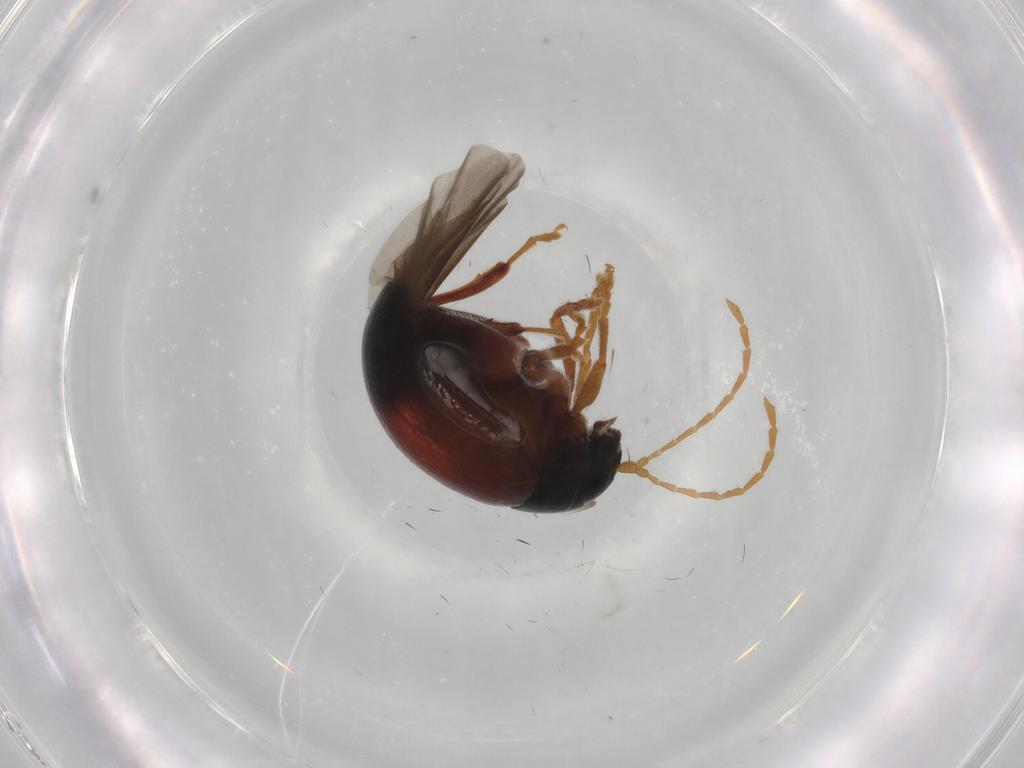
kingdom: Animalia
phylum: Arthropoda
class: Insecta
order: Coleoptera
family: Chrysomelidae
